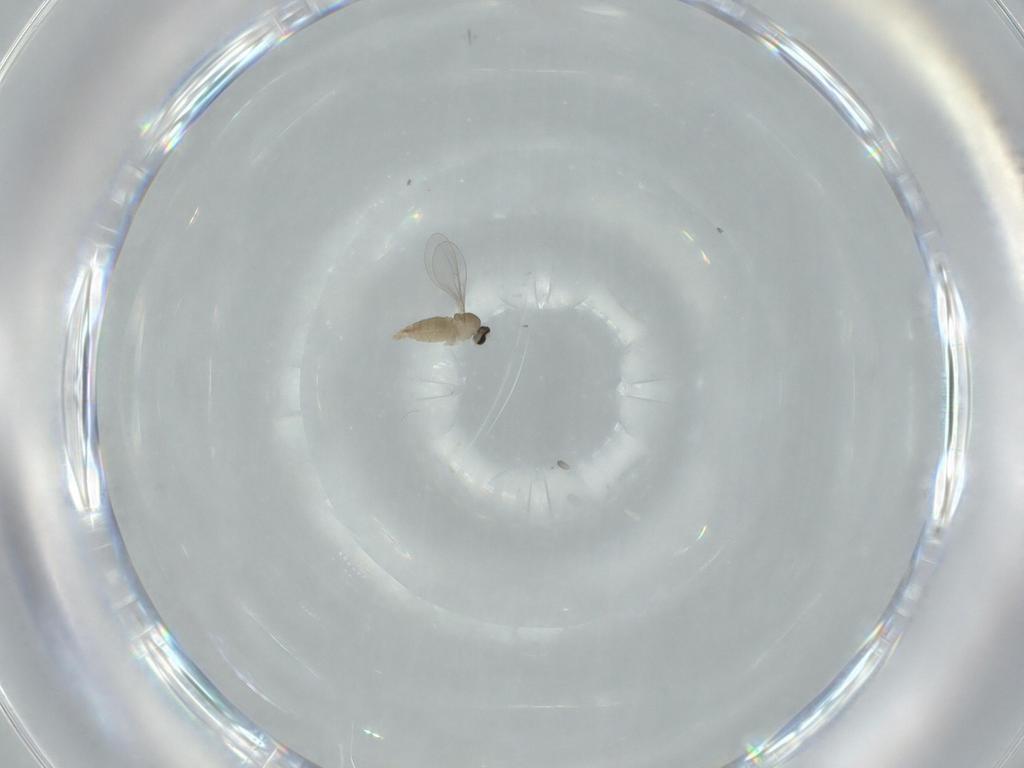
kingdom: Animalia
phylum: Arthropoda
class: Insecta
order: Diptera
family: Cecidomyiidae
